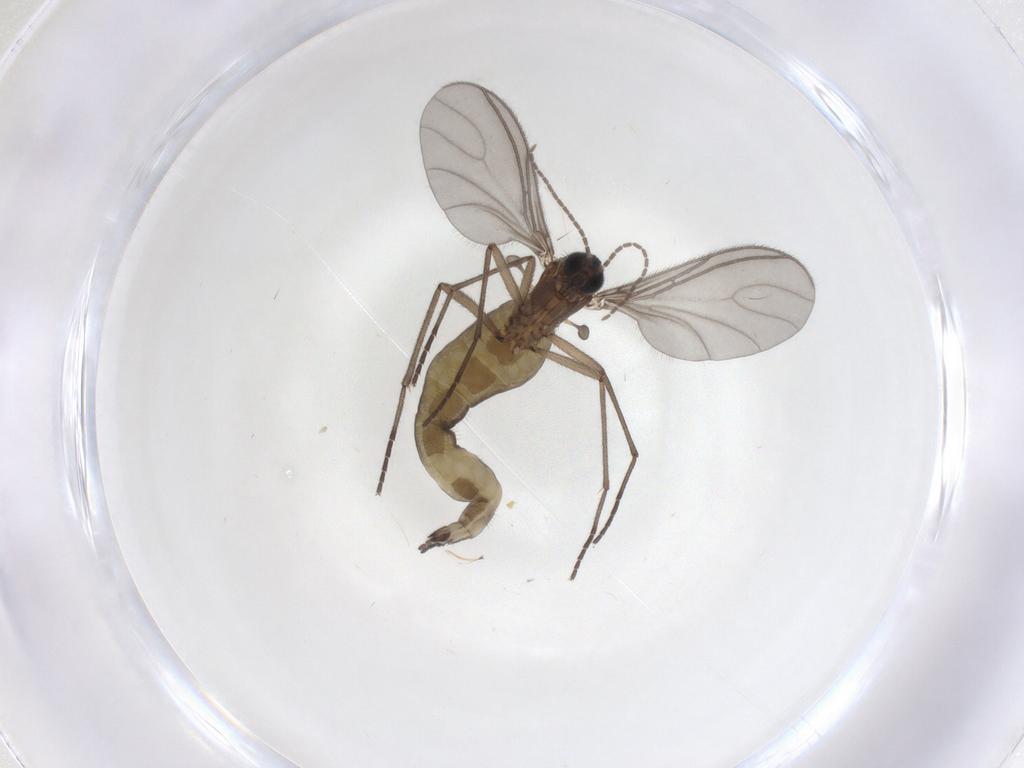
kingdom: Animalia
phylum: Arthropoda
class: Insecta
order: Diptera
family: Sciaridae
